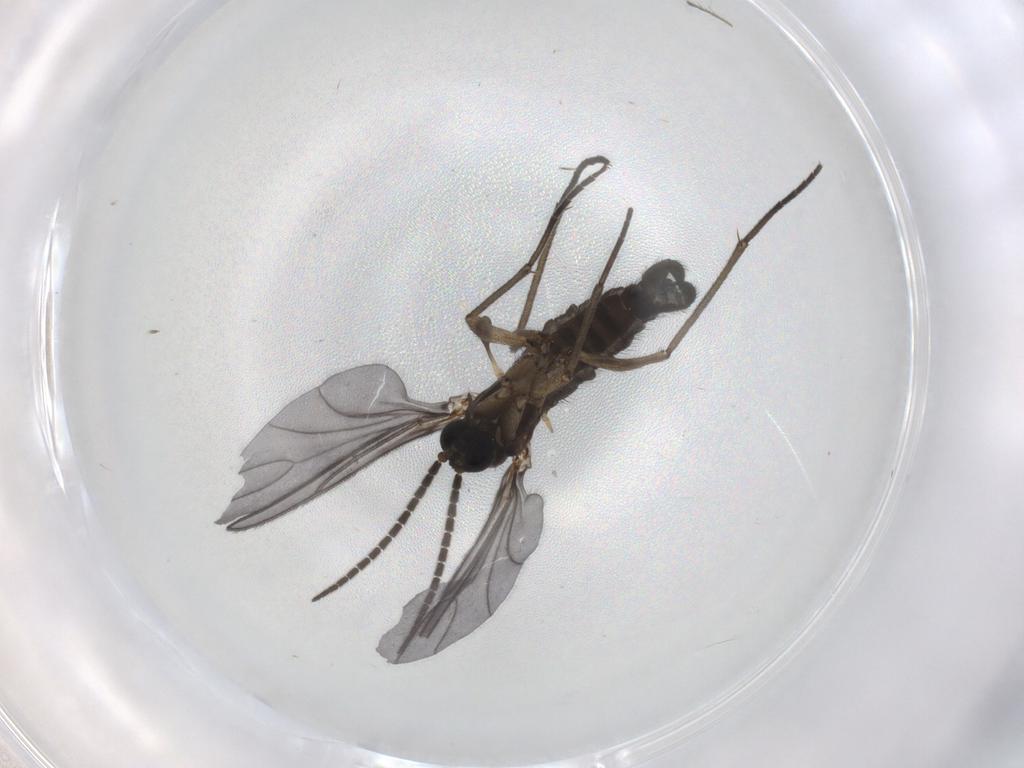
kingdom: Animalia
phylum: Arthropoda
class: Insecta
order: Diptera
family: Sciaridae
